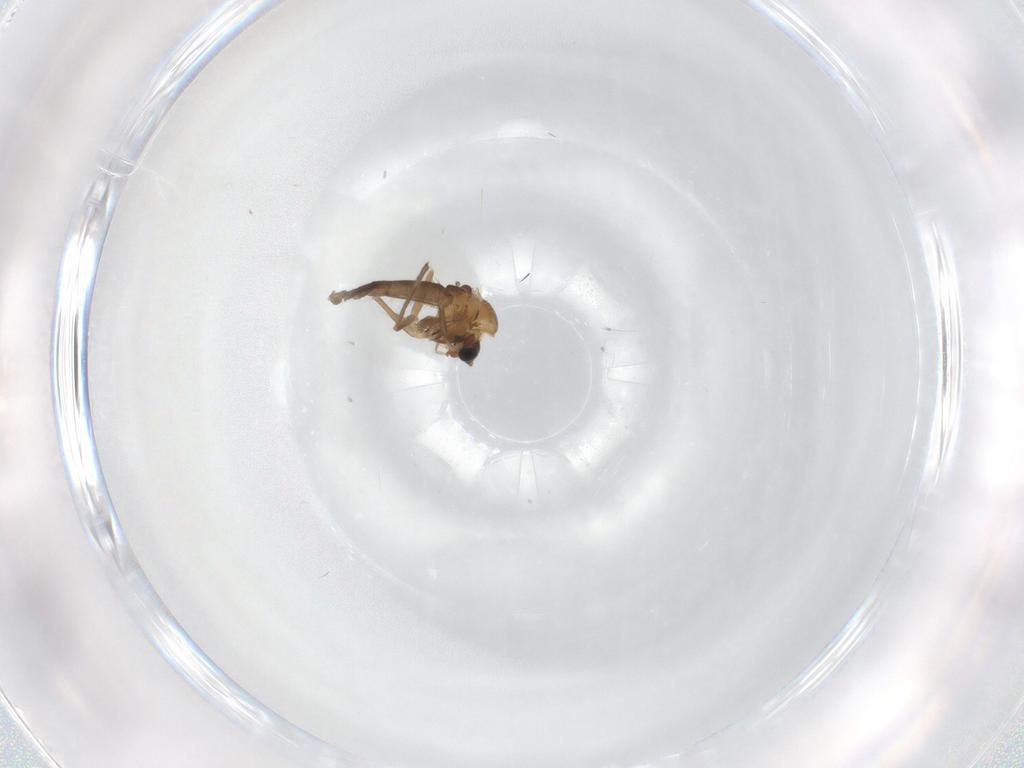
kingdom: Animalia
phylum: Arthropoda
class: Insecta
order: Diptera
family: Chironomidae
